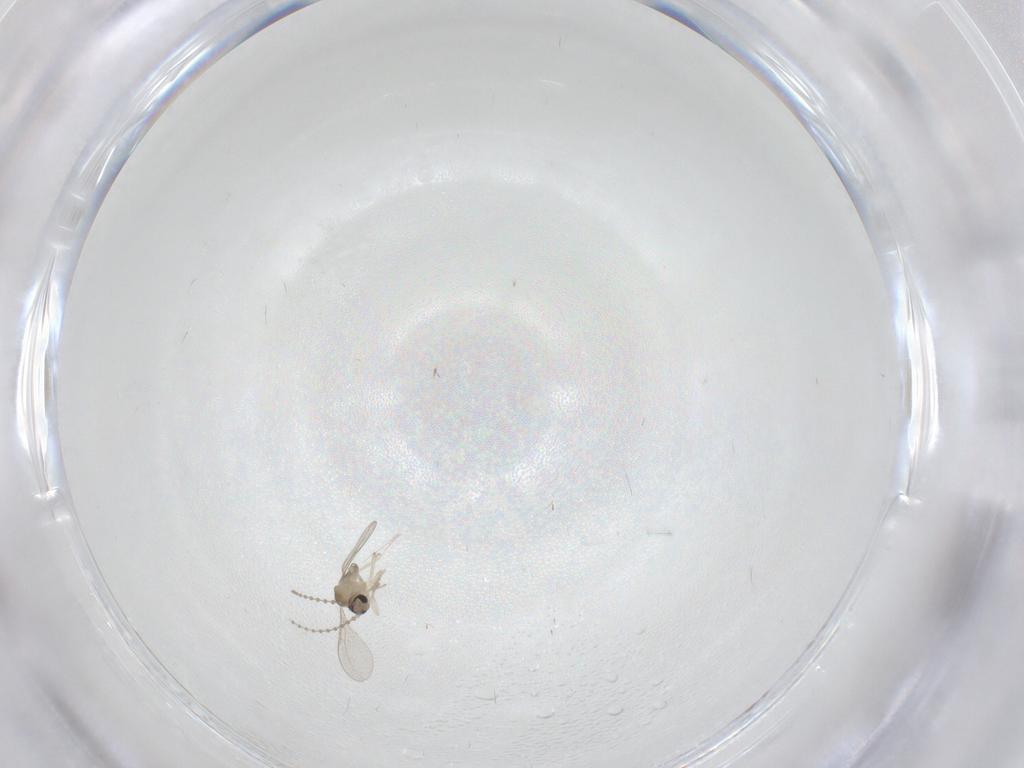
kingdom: Animalia
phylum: Arthropoda
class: Insecta
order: Diptera
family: Cecidomyiidae
